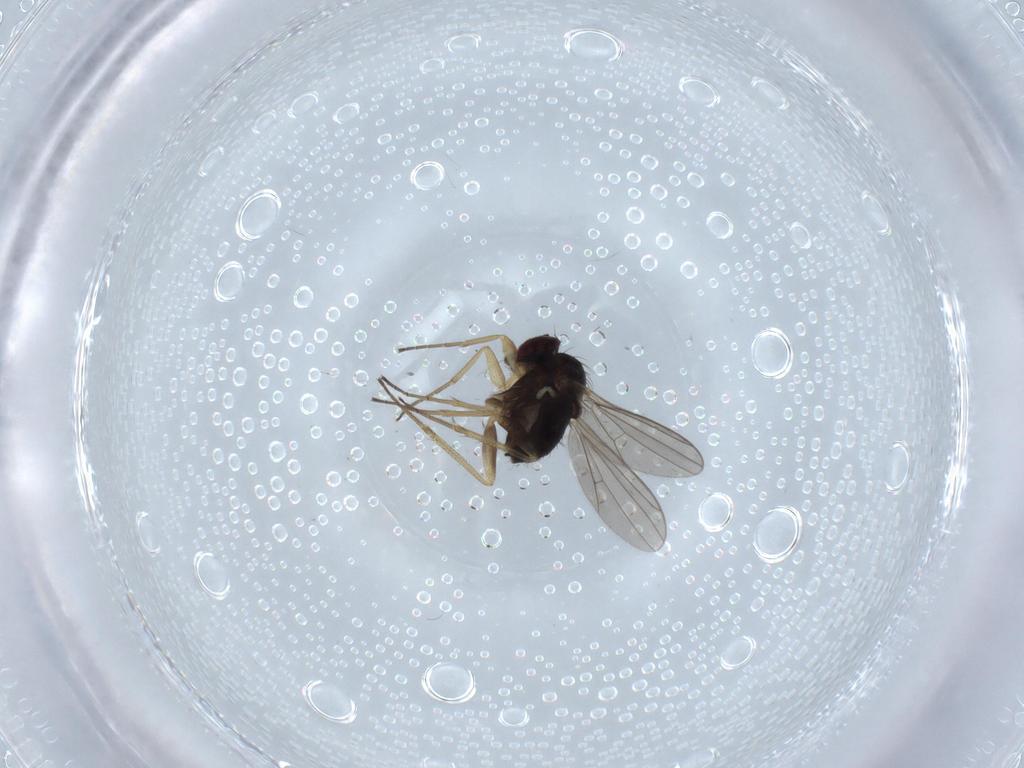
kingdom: Animalia
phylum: Arthropoda
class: Insecta
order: Diptera
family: Dolichopodidae
